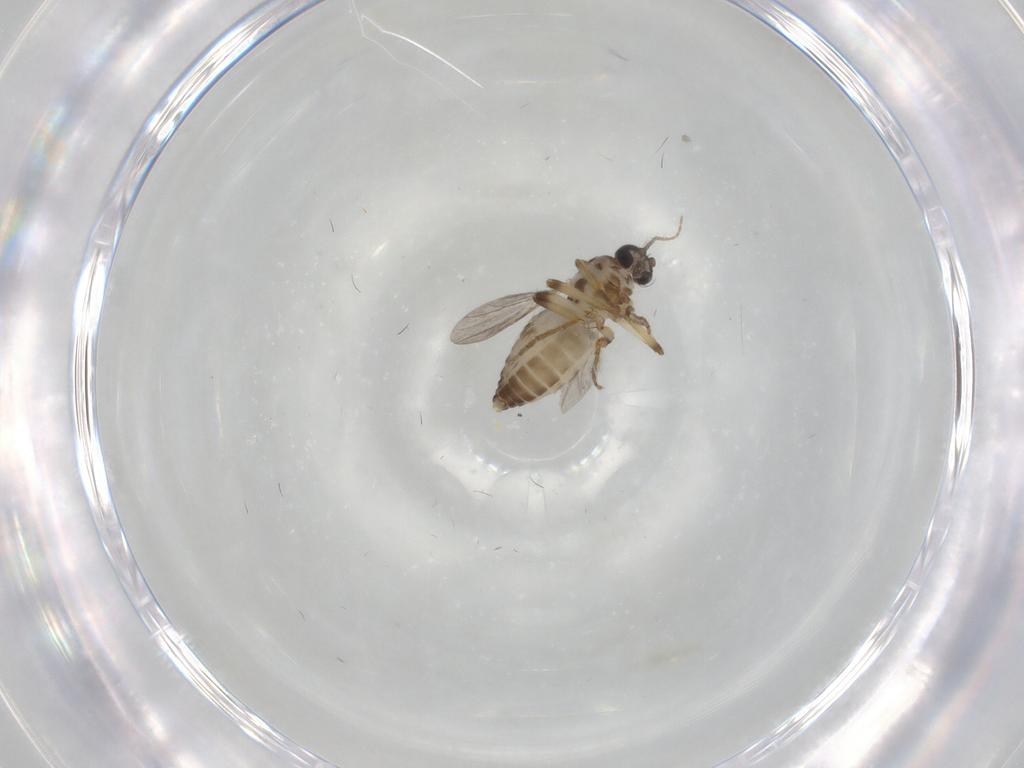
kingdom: Animalia
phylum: Arthropoda
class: Insecta
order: Diptera
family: Ceratopogonidae
